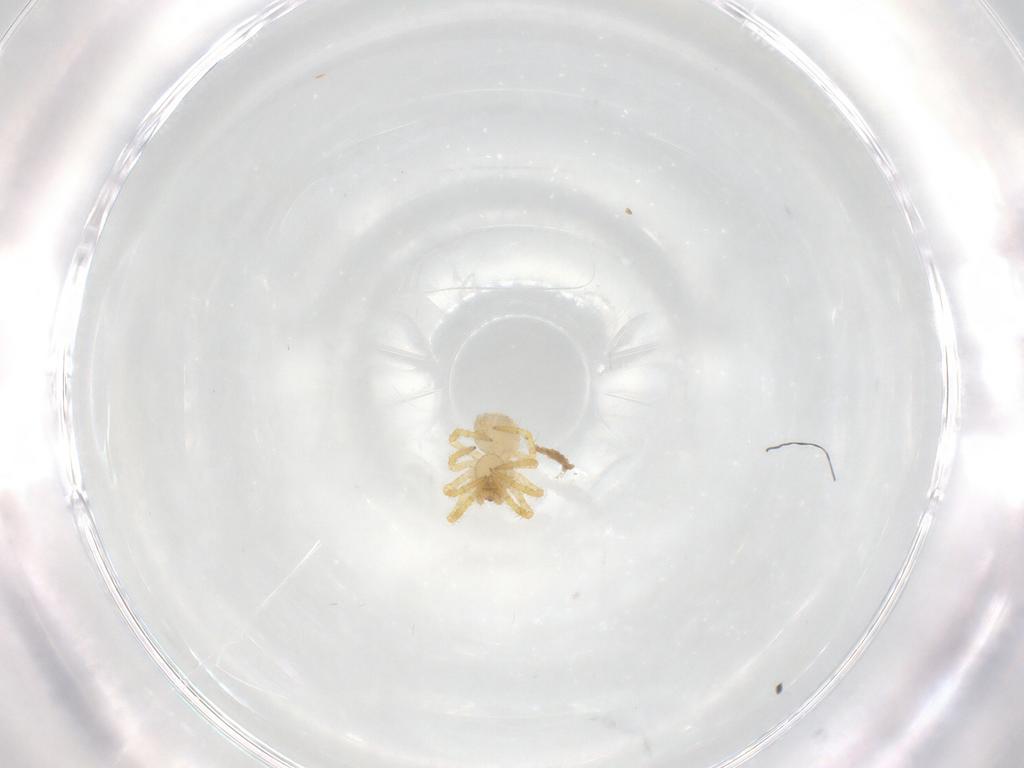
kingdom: Animalia
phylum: Arthropoda
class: Arachnida
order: Araneae
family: Theridiidae
